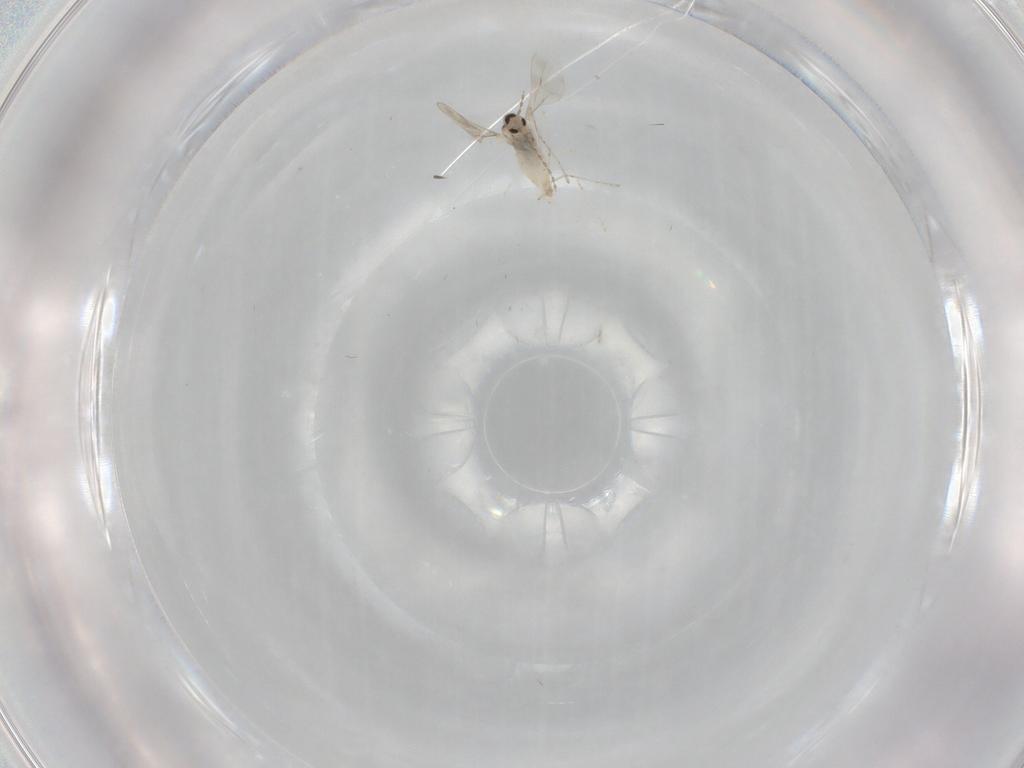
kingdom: Animalia
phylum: Arthropoda
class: Insecta
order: Diptera
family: Cecidomyiidae
